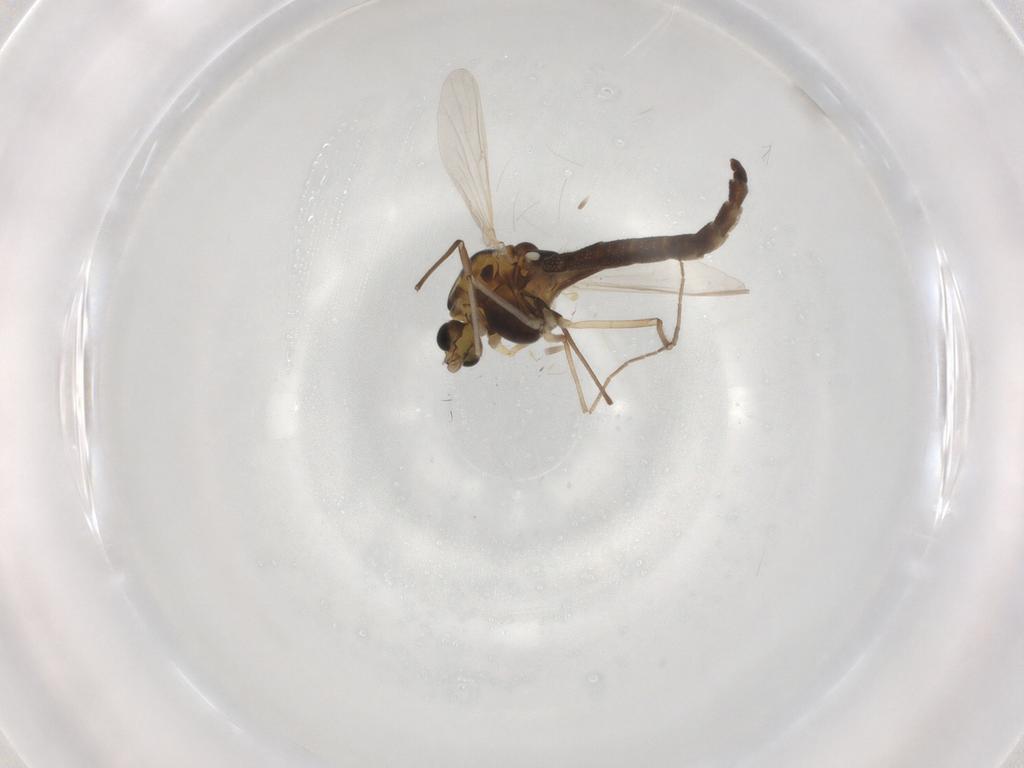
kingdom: Animalia
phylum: Arthropoda
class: Insecta
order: Diptera
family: Chironomidae
